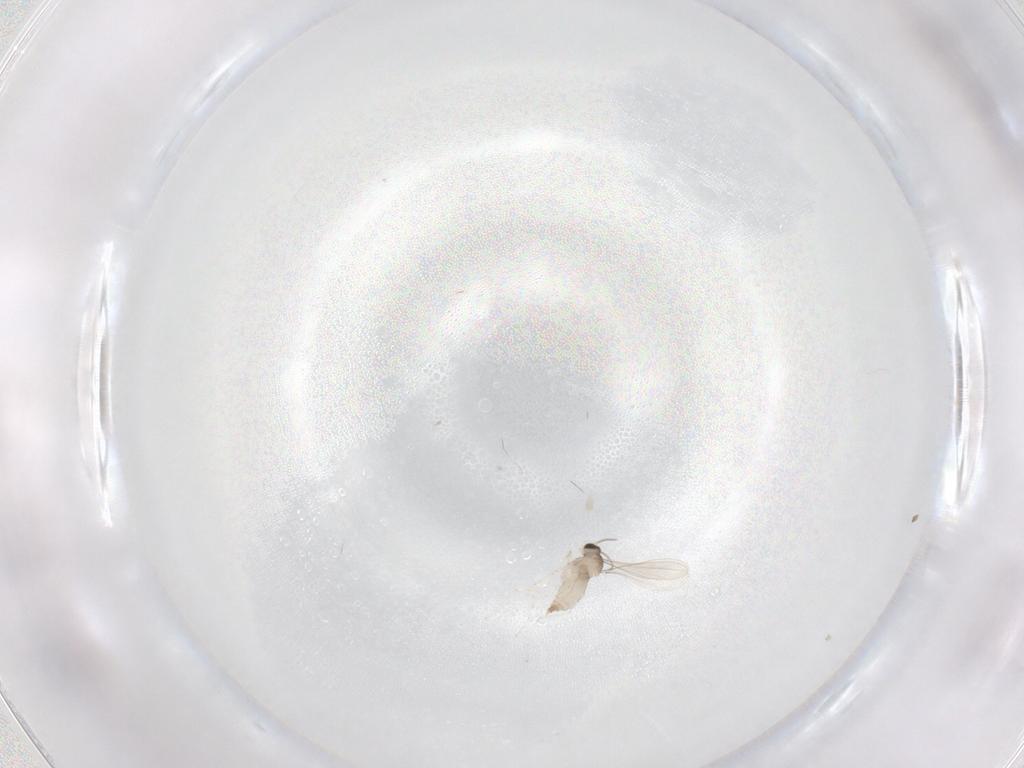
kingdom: Animalia
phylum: Arthropoda
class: Insecta
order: Diptera
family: Cecidomyiidae
